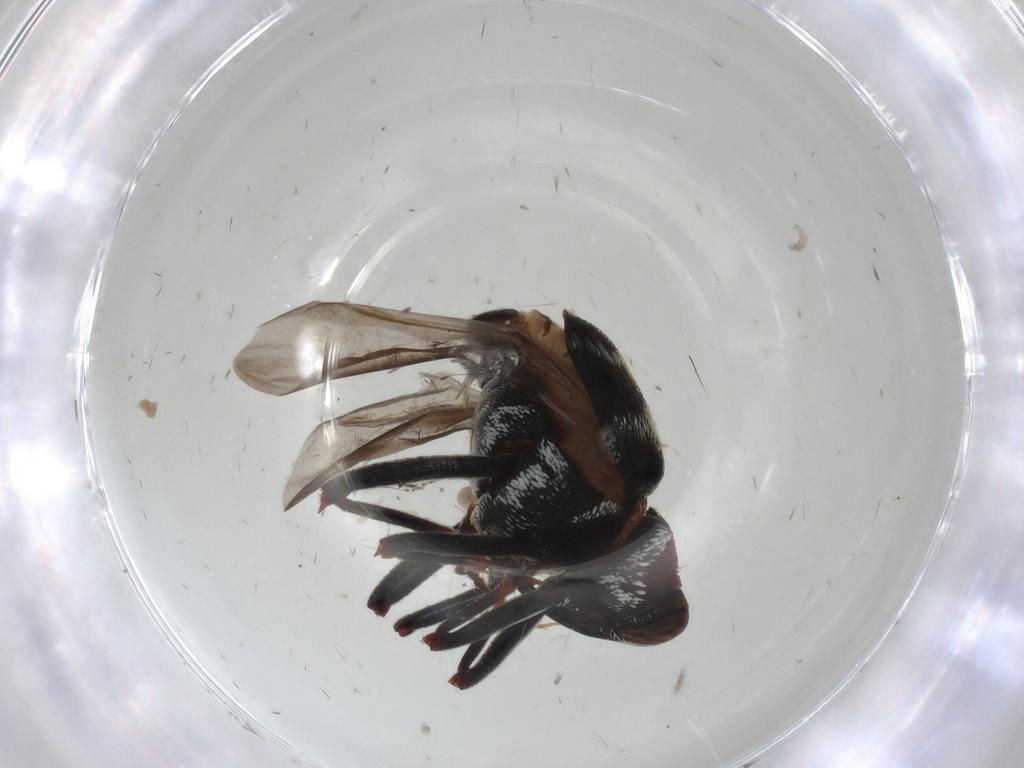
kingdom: Animalia
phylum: Arthropoda
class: Insecta
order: Coleoptera
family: Curculionidae
